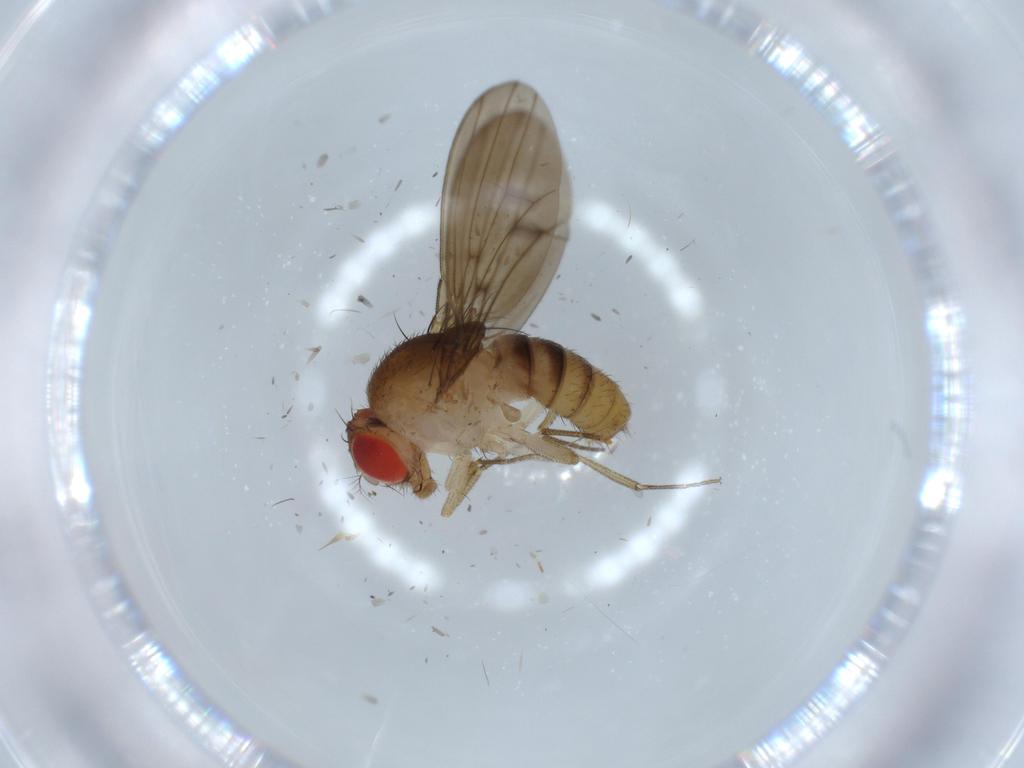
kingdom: Animalia
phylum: Arthropoda
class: Insecta
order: Diptera
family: Drosophilidae
